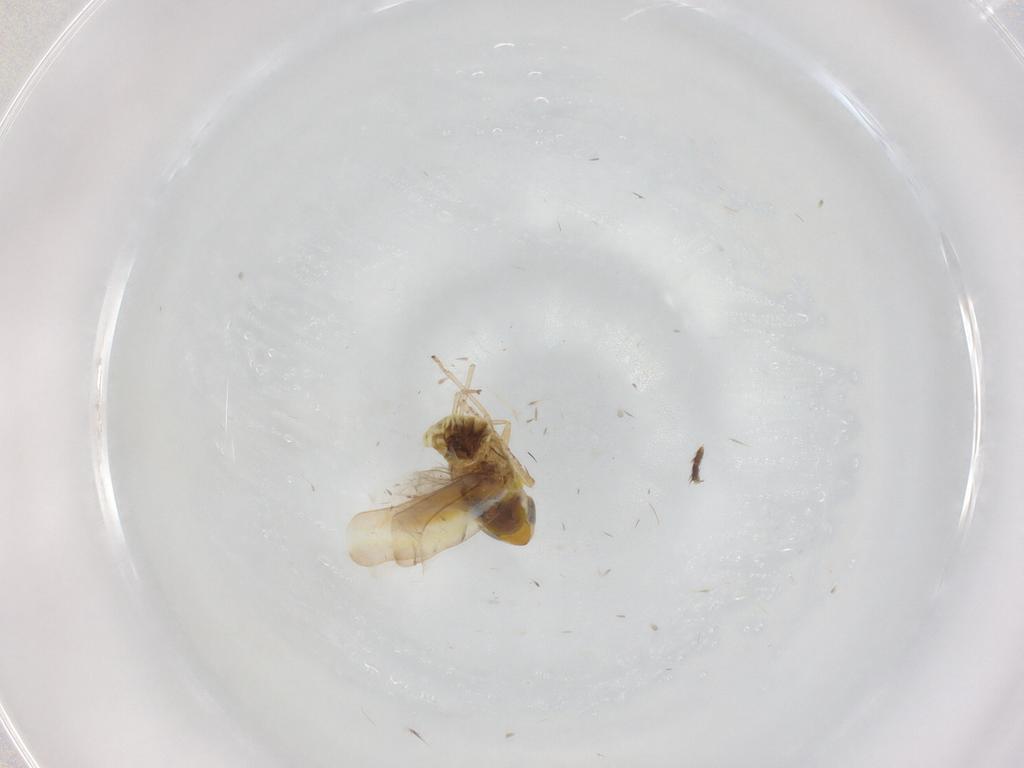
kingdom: Animalia
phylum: Arthropoda
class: Insecta
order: Hemiptera
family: Cicadellidae
